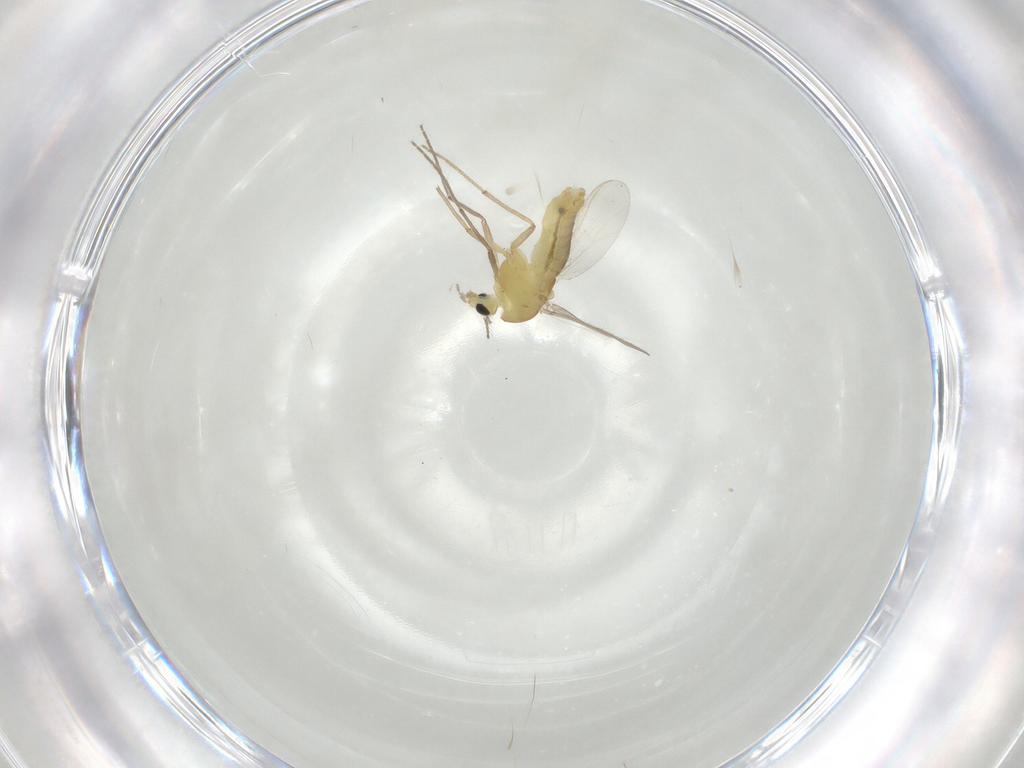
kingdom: Animalia
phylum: Arthropoda
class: Insecta
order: Diptera
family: Chironomidae
